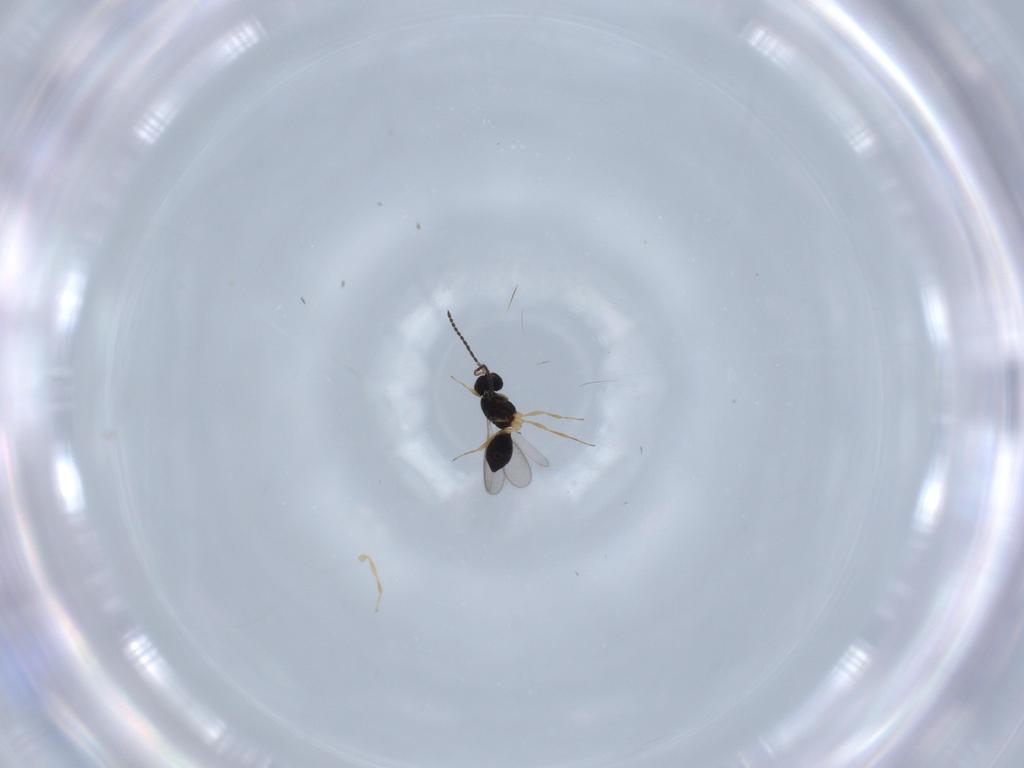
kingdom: Animalia
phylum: Arthropoda
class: Insecta
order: Hymenoptera
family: Scelionidae
